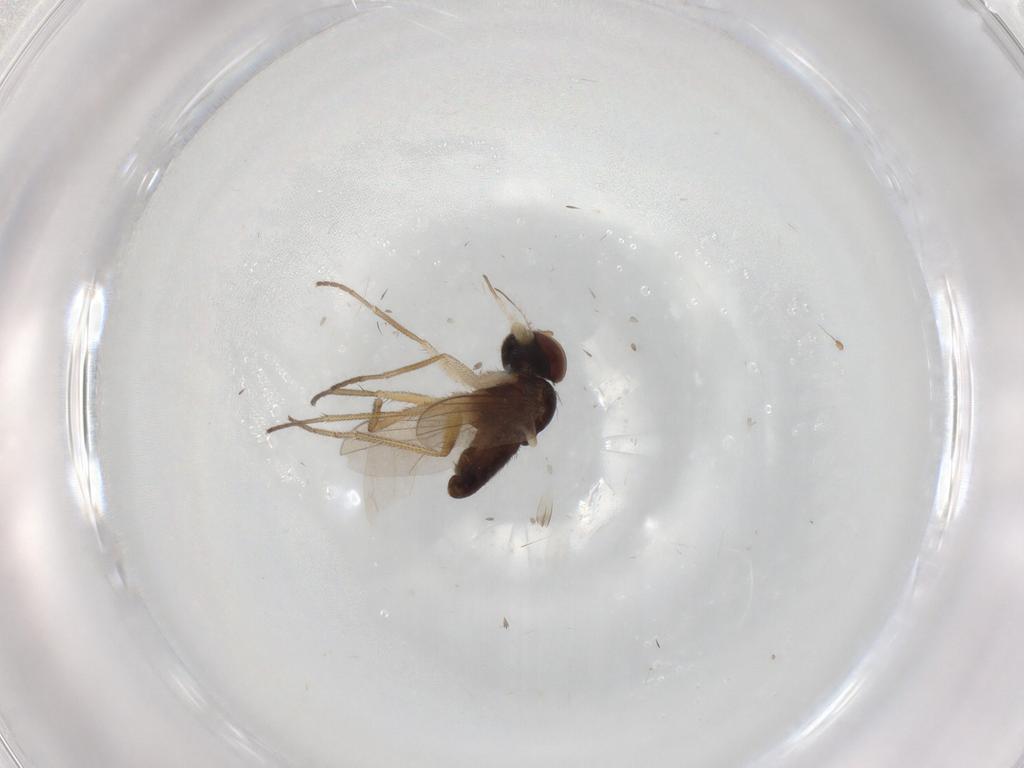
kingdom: Animalia
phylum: Arthropoda
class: Insecta
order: Diptera
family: Dolichopodidae
